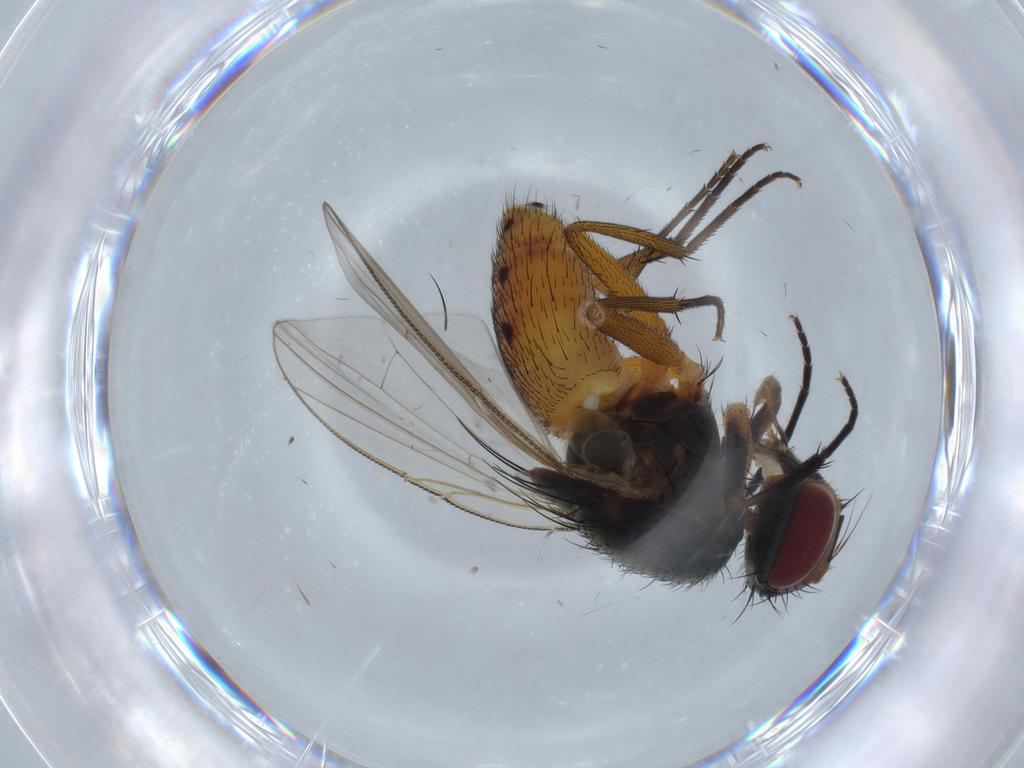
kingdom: Animalia
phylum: Arthropoda
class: Insecta
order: Diptera
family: Muscidae
